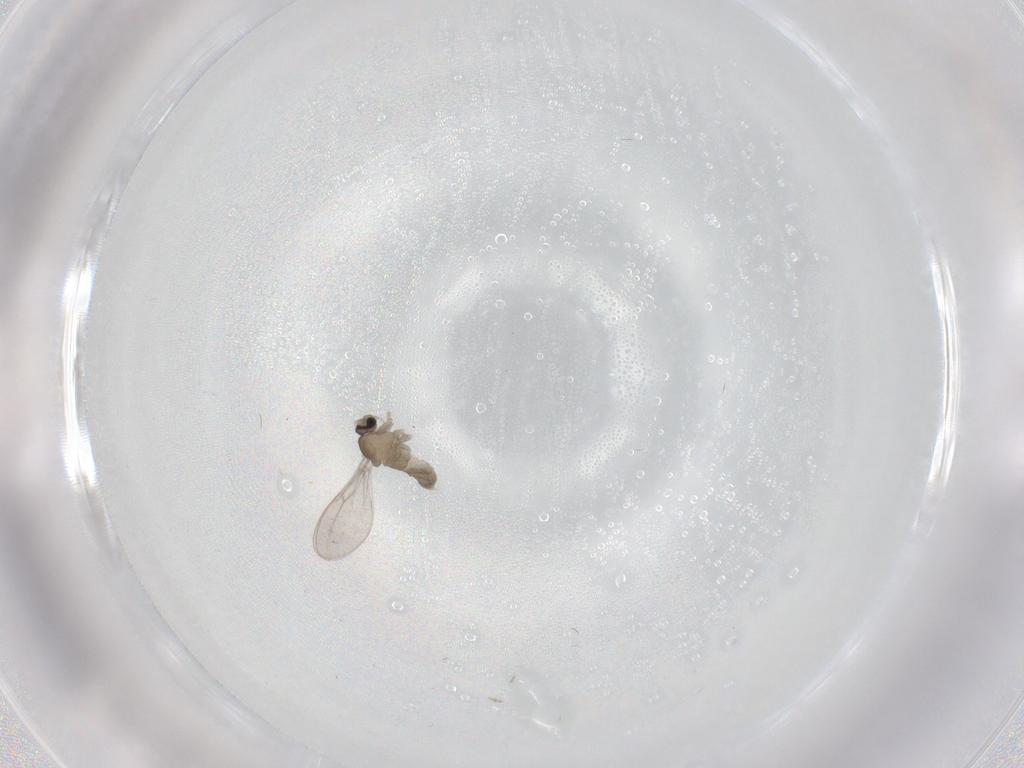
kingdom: Animalia
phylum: Arthropoda
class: Insecta
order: Diptera
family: Cecidomyiidae
